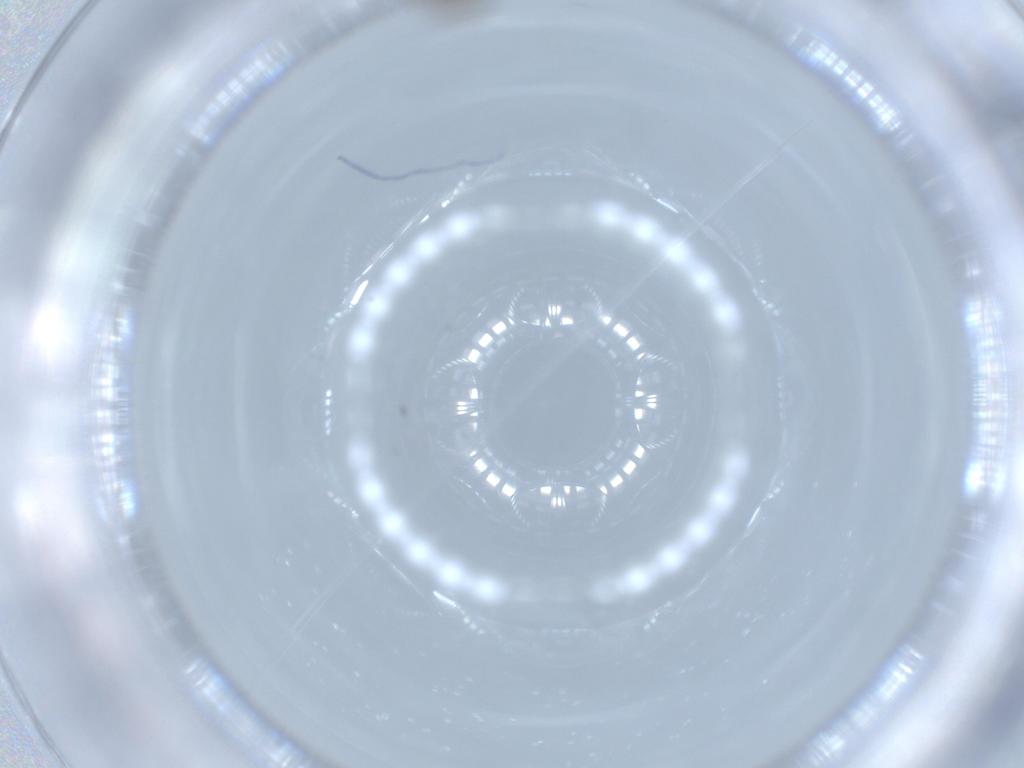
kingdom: Animalia
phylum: Arthropoda
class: Insecta
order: Psocodea
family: Ectopsocidae
